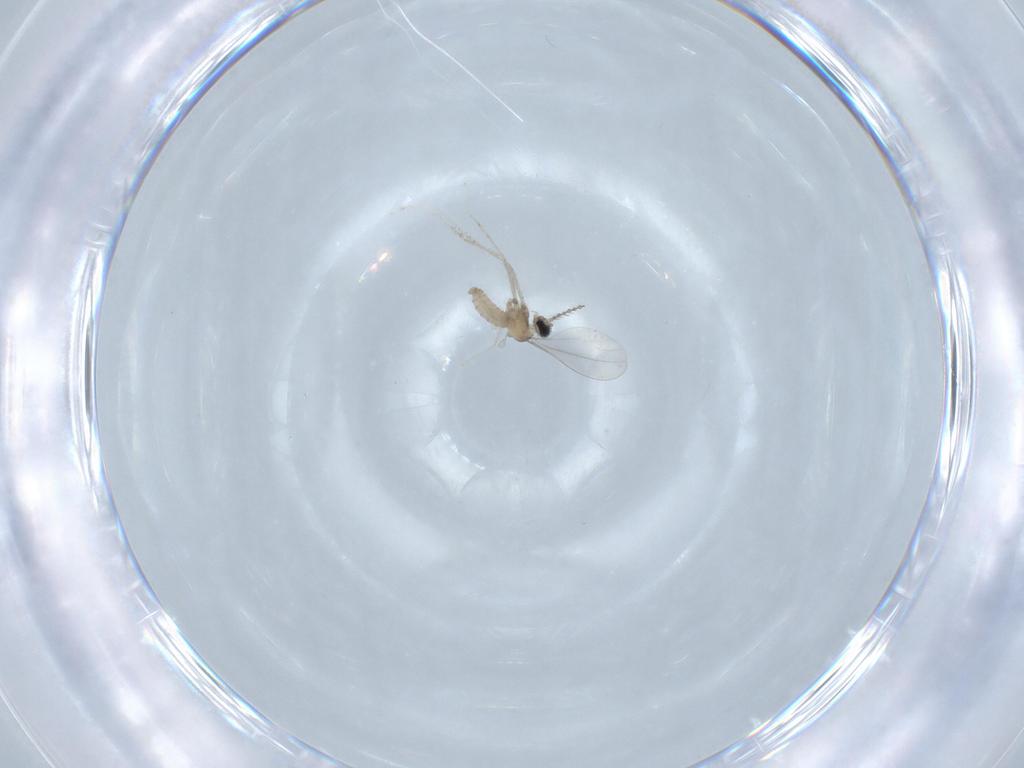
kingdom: Animalia
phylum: Arthropoda
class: Insecta
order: Diptera
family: Cecidomyiidae
